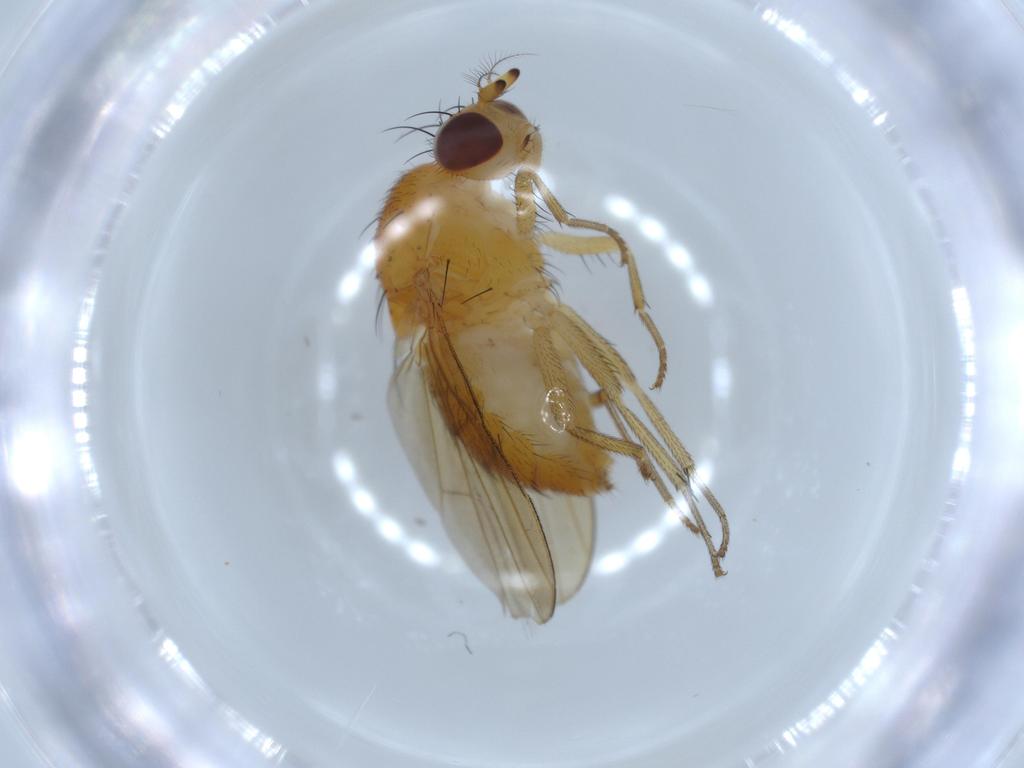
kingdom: Animalia
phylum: Arthropoda
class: Insecta
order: Diptera
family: Lauxaniidae
